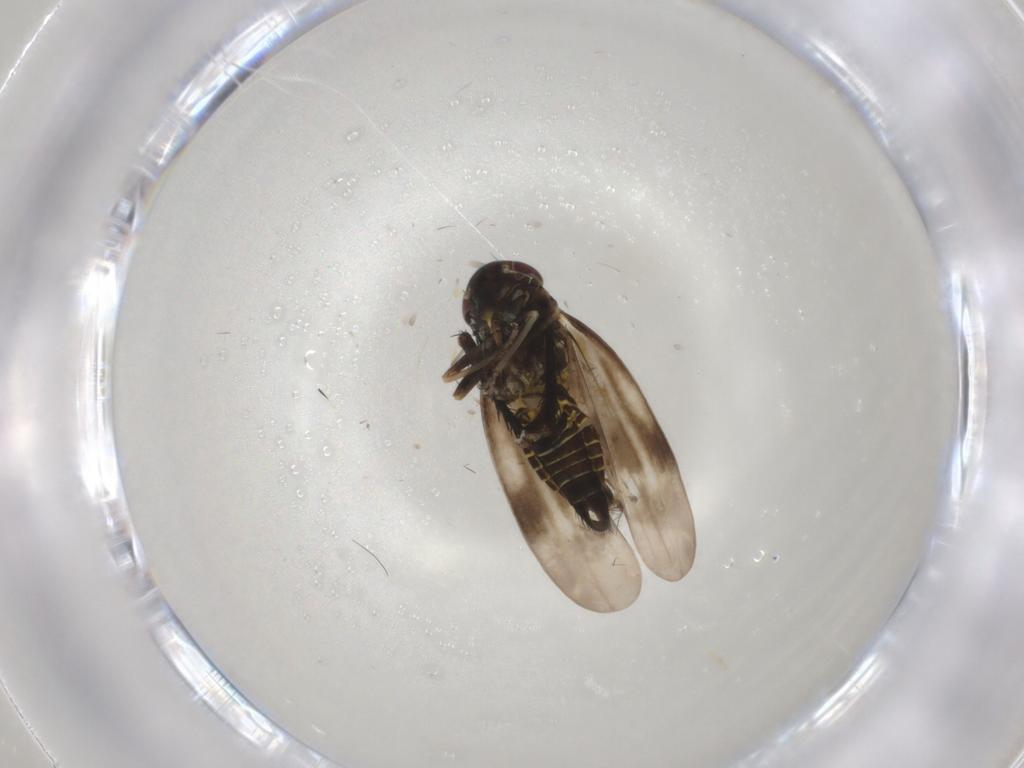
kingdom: Animalia
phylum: Arthropoda
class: Insecta
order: Hemiptera
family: Cicadellidae
